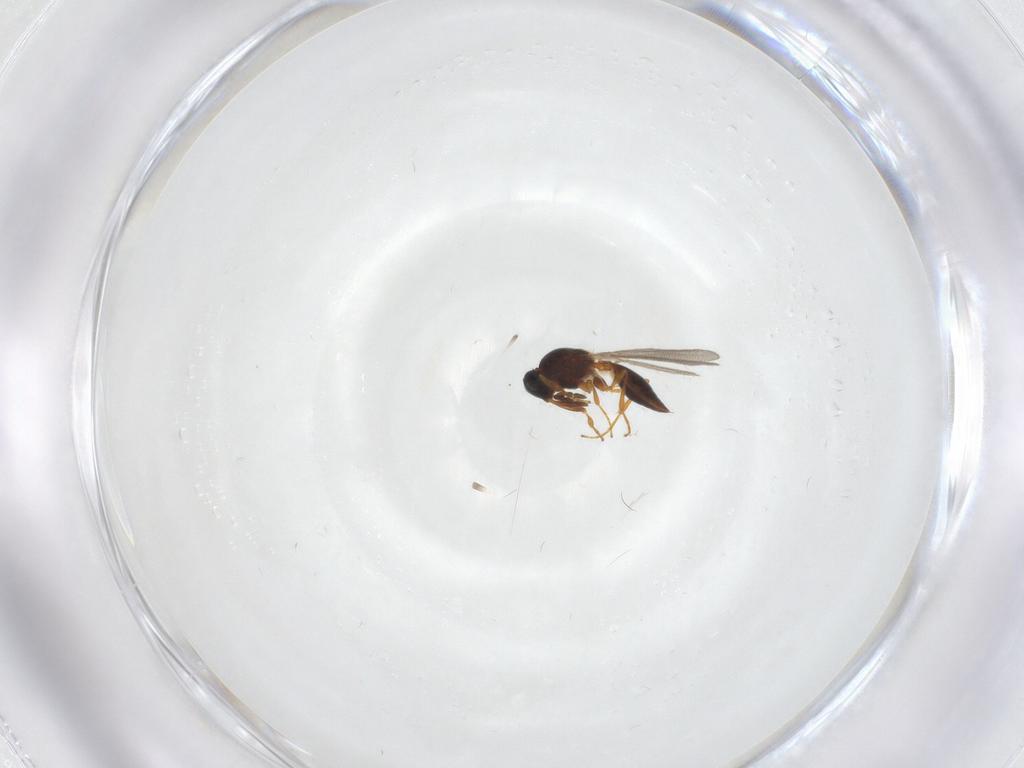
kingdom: Animalia
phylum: Arthropoda
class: Insecta
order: Hymenoptera
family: Platygastridae
